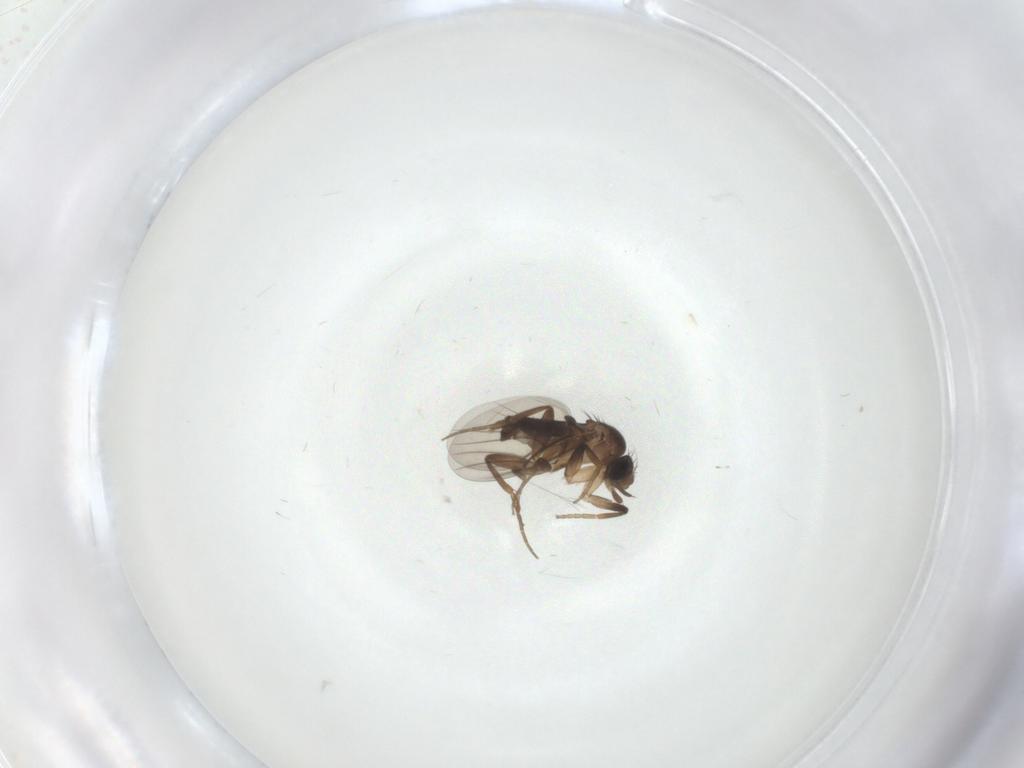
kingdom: Animalia
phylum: Arthropoda
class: Insecta
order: Diptera
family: Phoridae
